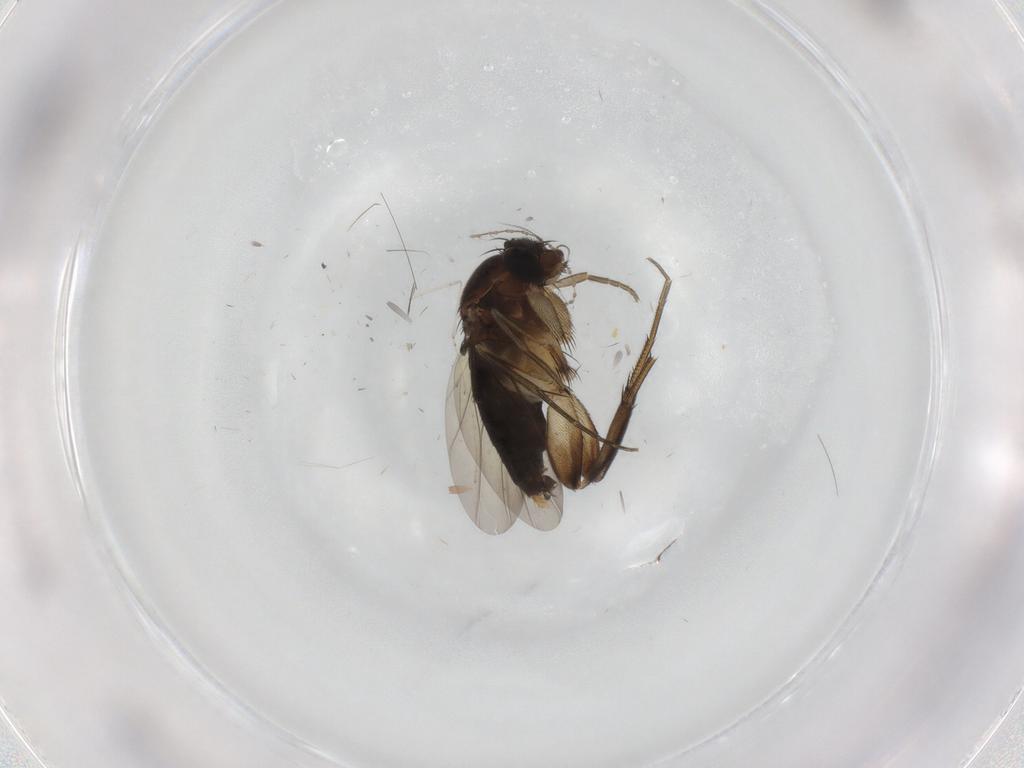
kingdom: Animalia
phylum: Arthropoda
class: Insecta
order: Diptera
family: Phoridae
